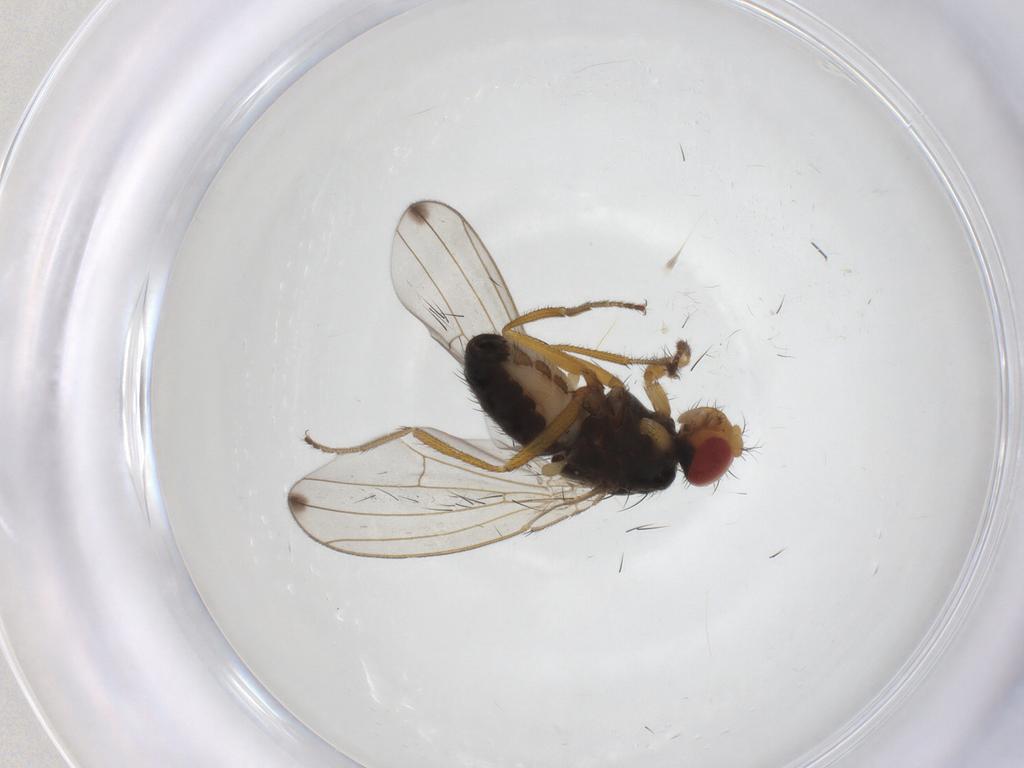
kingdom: Animalia
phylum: Arthropoda
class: Insecta
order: Diptera
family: Drosophilidae
